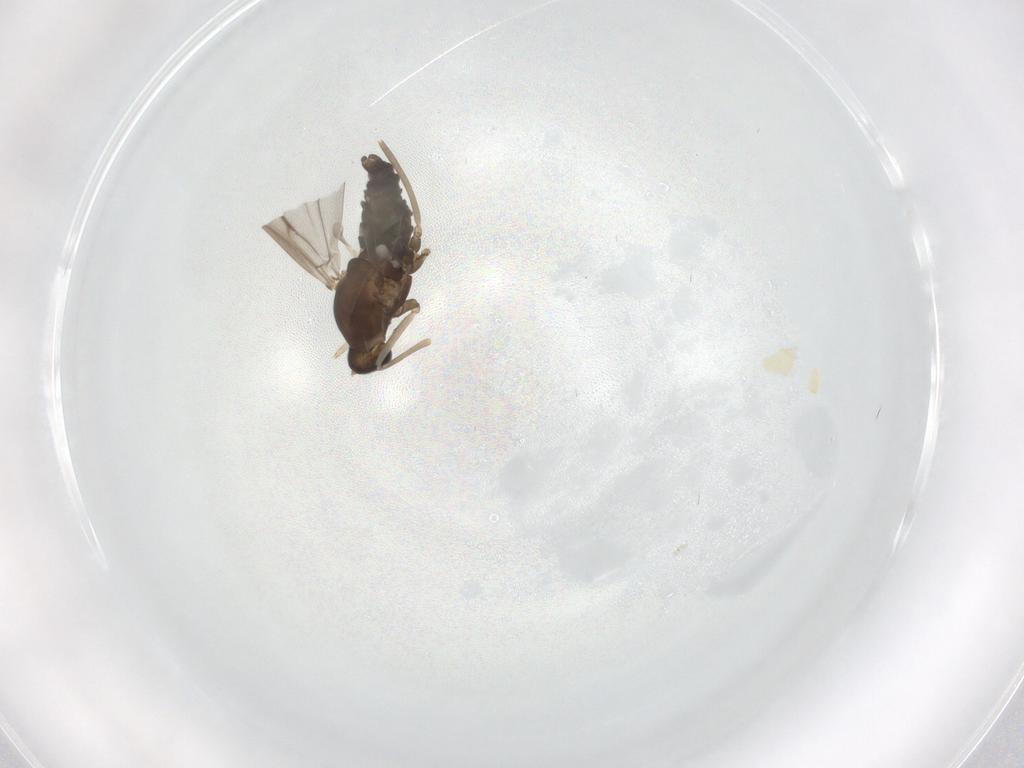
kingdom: Animalia
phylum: Arthropoda
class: Insecta
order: Diptera
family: Cecidomyiidae
